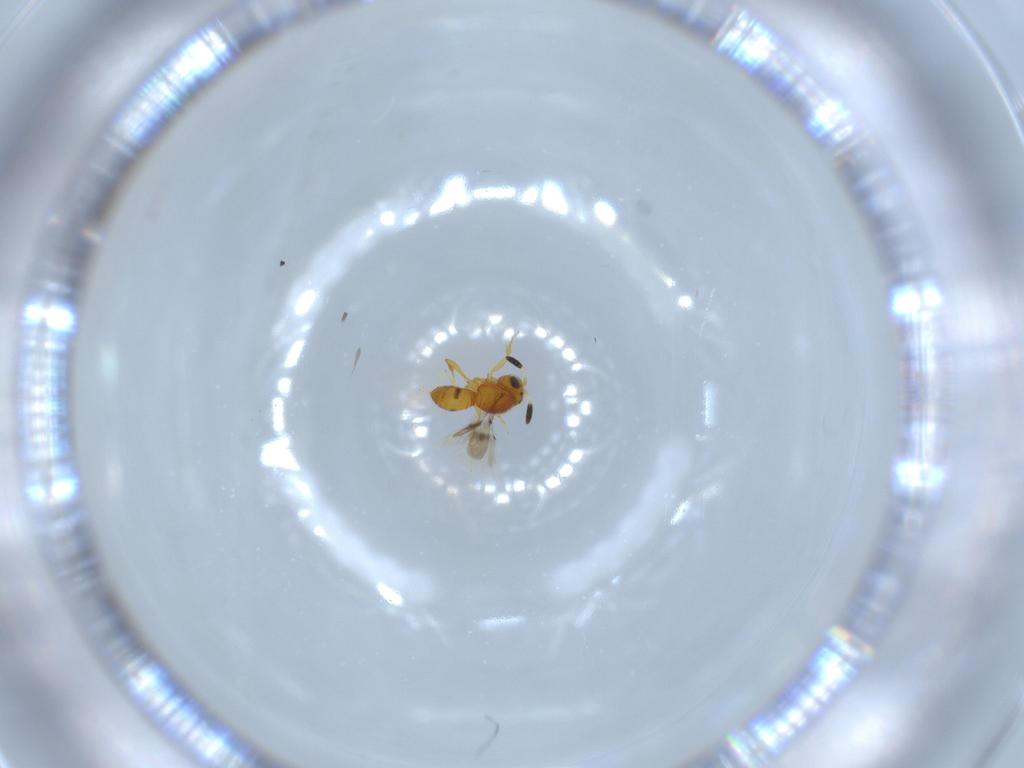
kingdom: Animalia
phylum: Arthropoda
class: Insecta
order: Hymenoptera
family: Scelionidae
